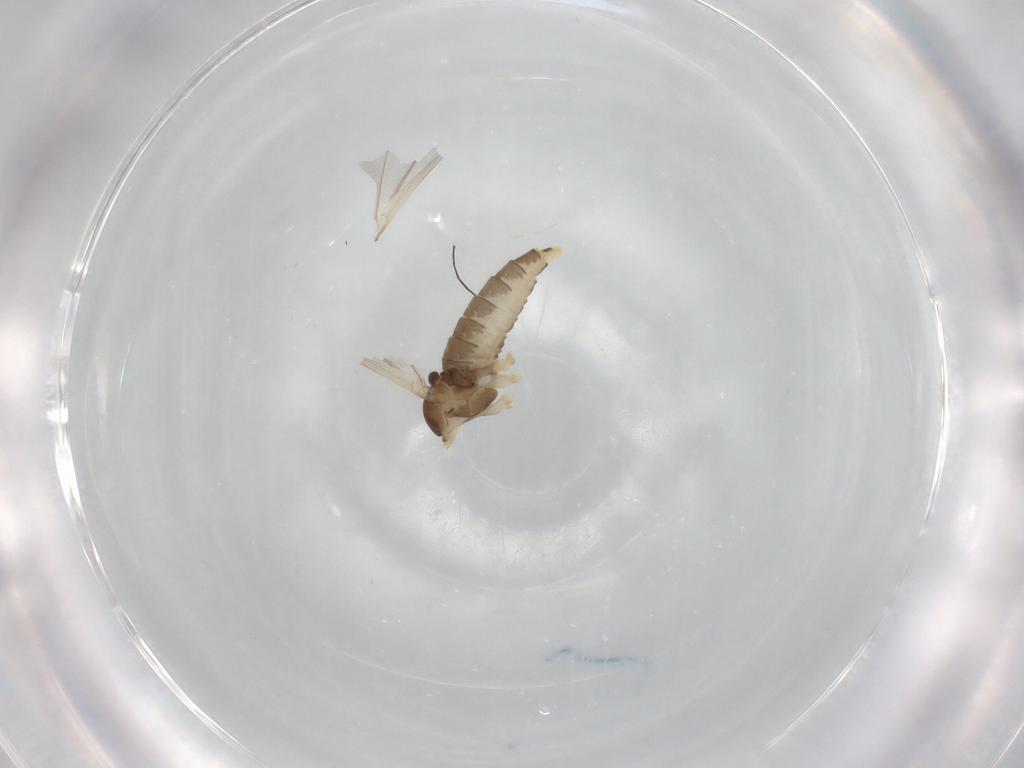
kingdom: Animalia
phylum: Arthropoda
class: Insecta
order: Diptera
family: Cecidomyiidae
